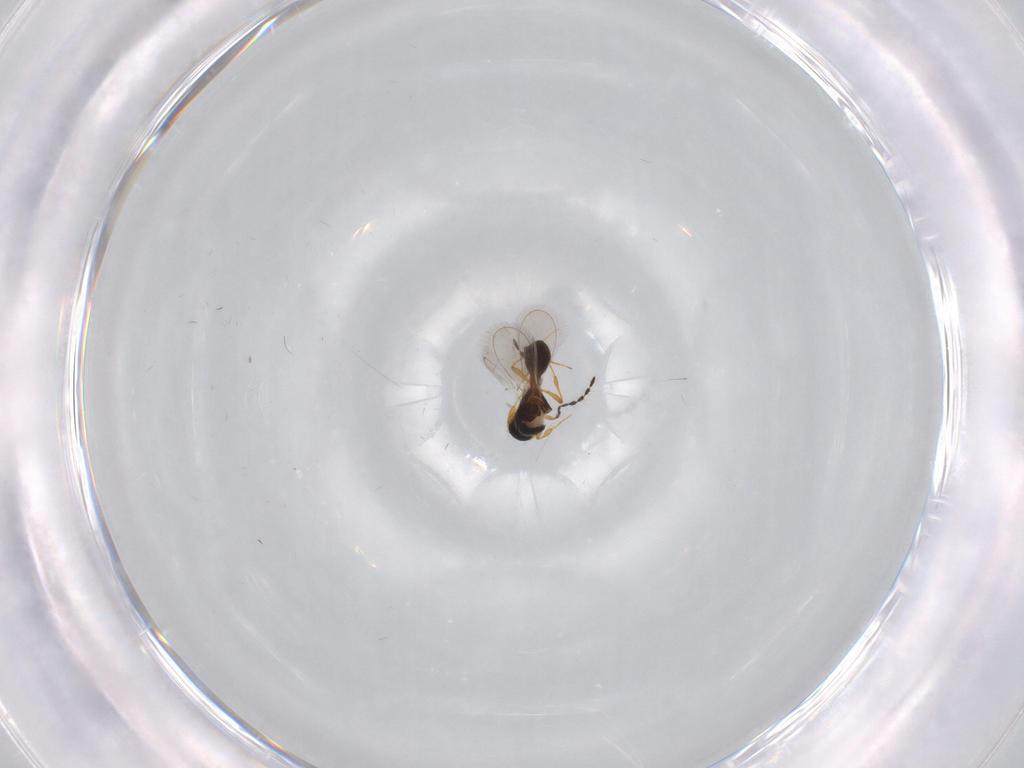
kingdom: Animalia
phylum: Arthropoda
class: Insecta
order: Hymenoptera
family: Platygastridae
